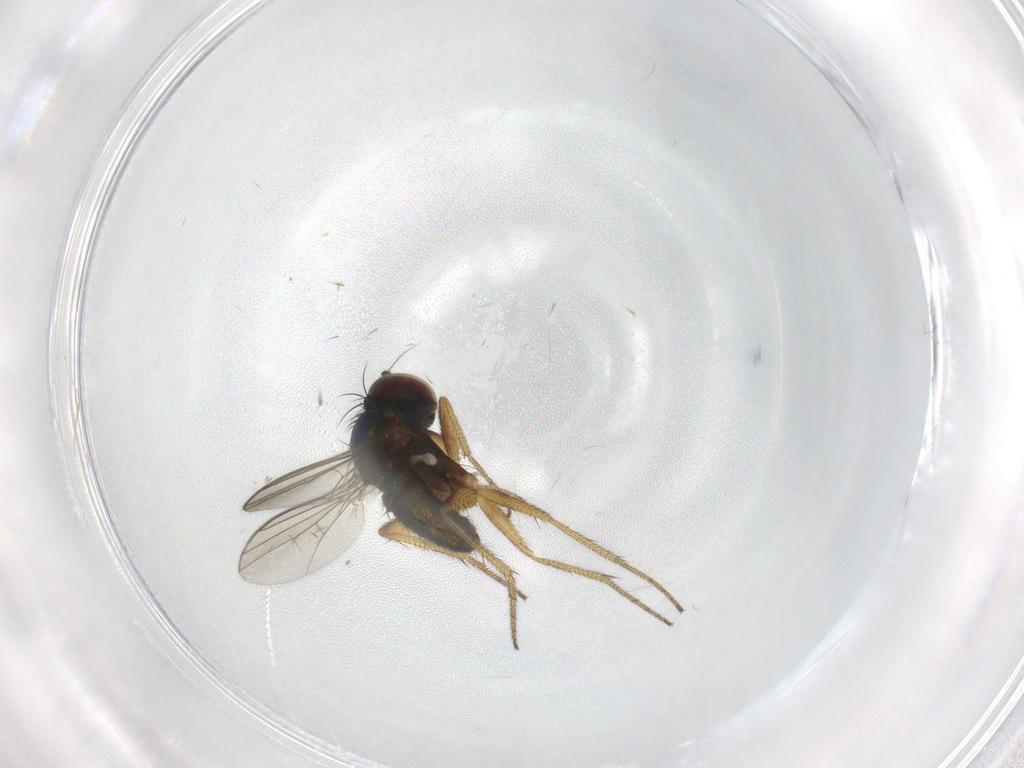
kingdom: Animalia
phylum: Arthropoda
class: Insecta
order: Diptera
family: Cecidomyiidae
